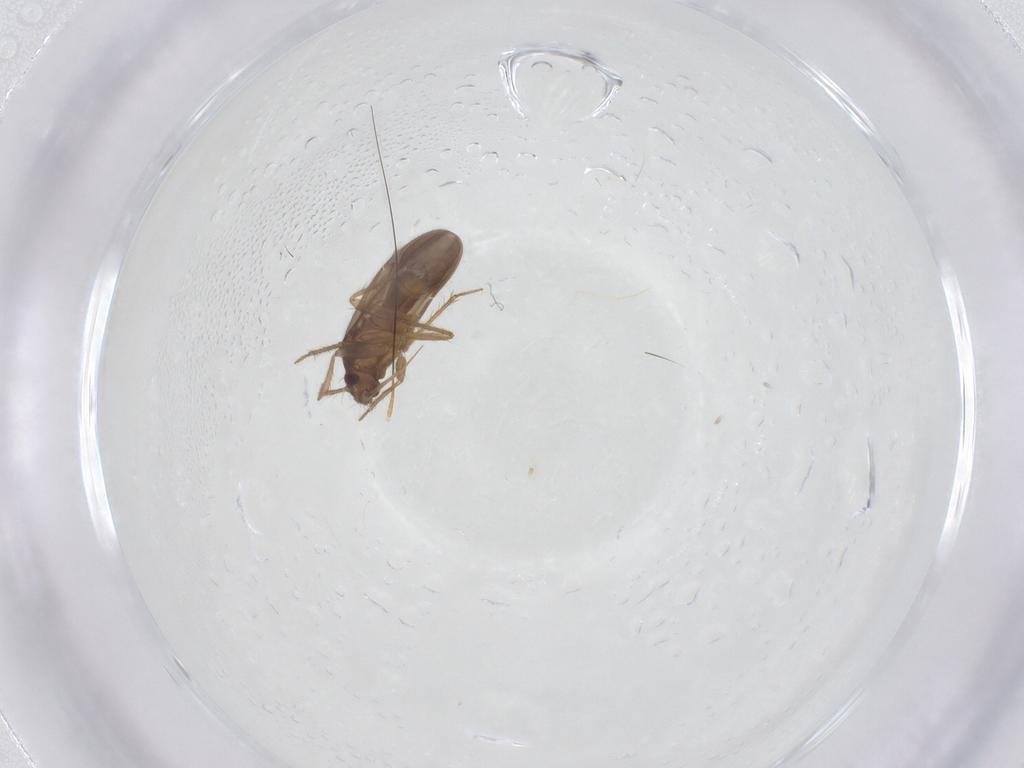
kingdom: Animalia
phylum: Arthropoda
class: Insecta
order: Hemiptera
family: Ceratocombidae
